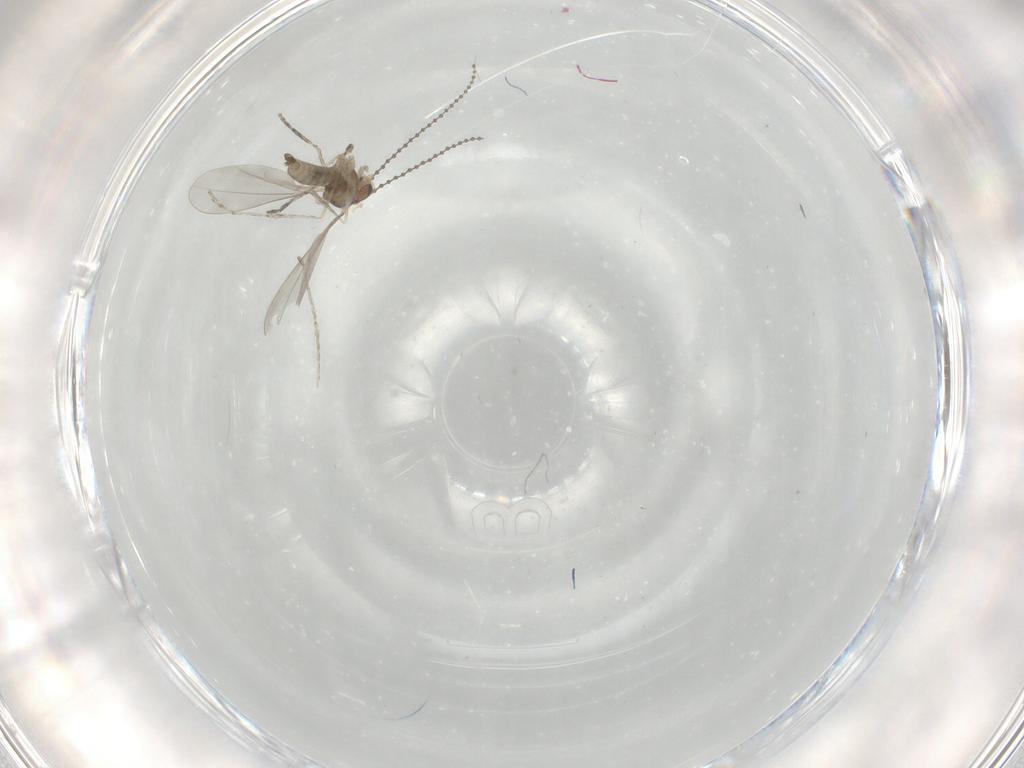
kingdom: Animalia
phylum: Arthropoda
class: Insecta
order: Diptera
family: Cecidomyiidae
